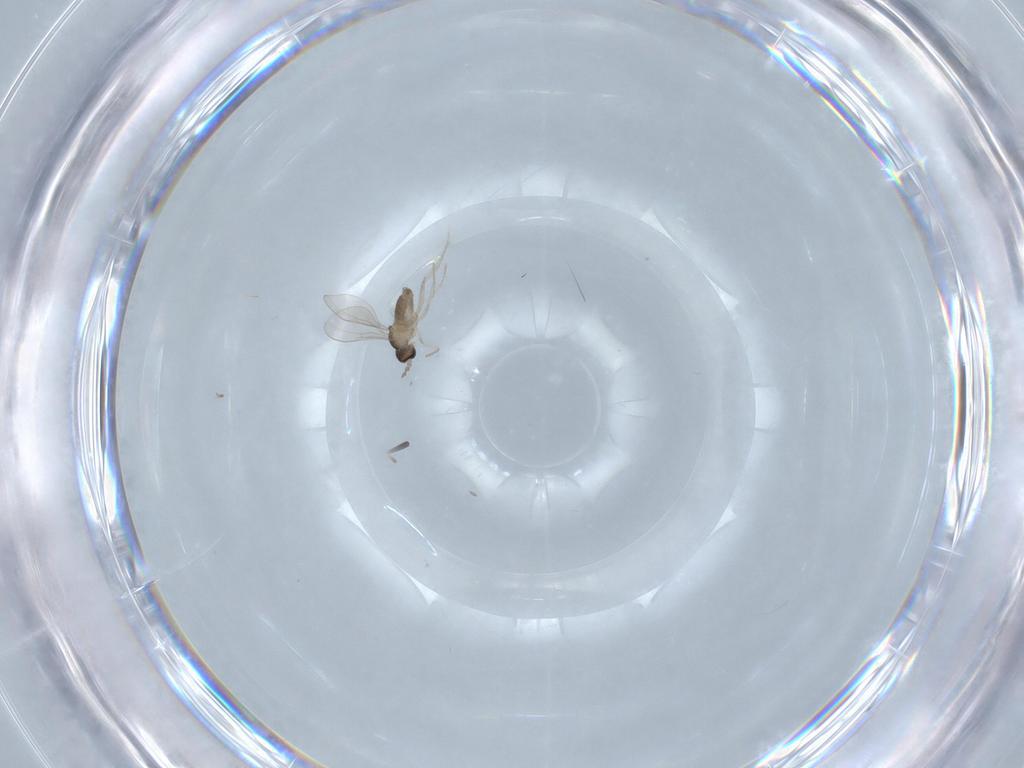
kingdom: Animalia
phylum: Arthropoda
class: Insecta
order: Diptera
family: Cecidomyiidae
